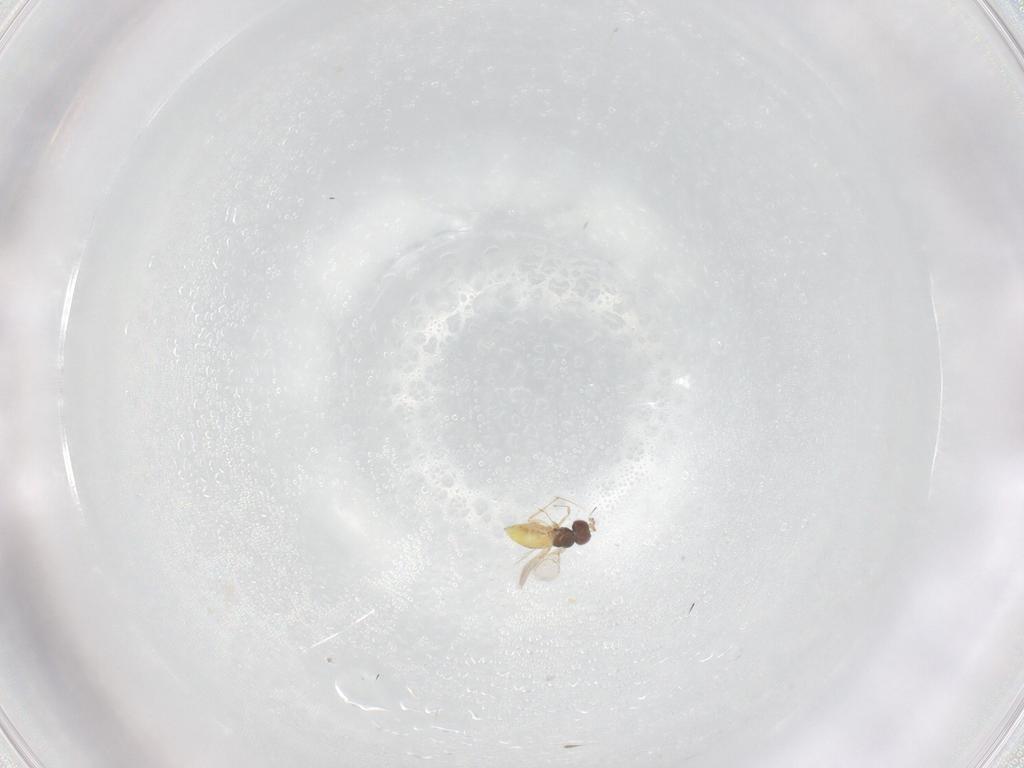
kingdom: Animalia
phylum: Arthropoda
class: Insecta
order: Hymenoptera
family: Trichogrammatidae
